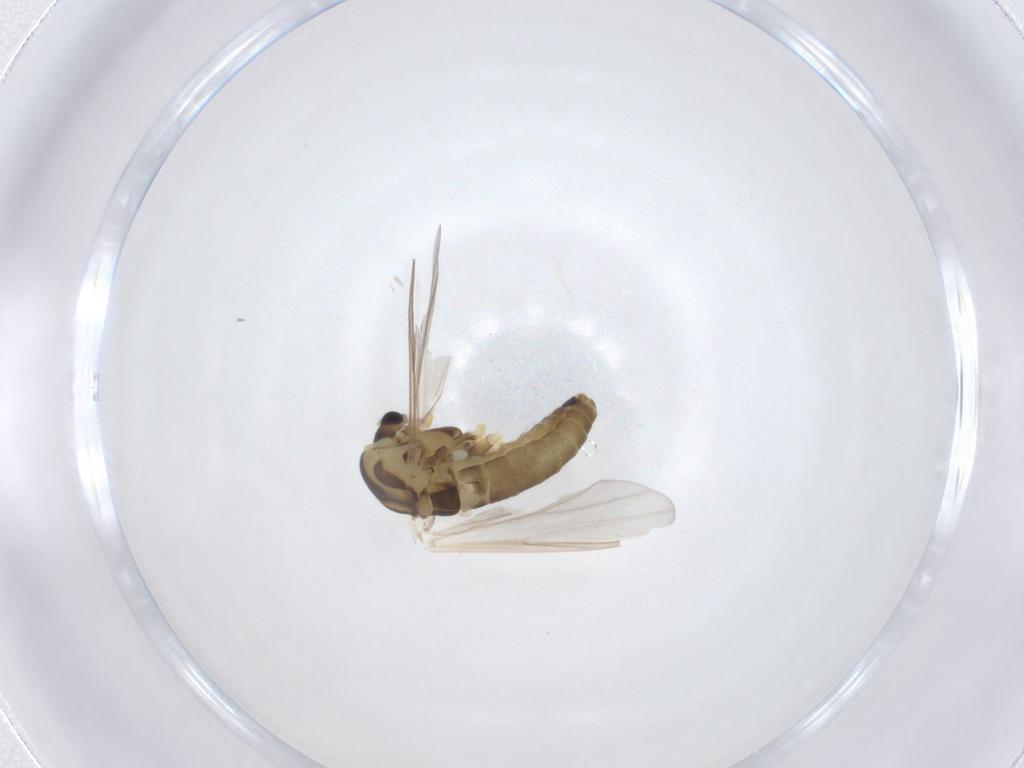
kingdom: Animalia
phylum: Arthropoda
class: Insecta
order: Diptera
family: Chironomidae
